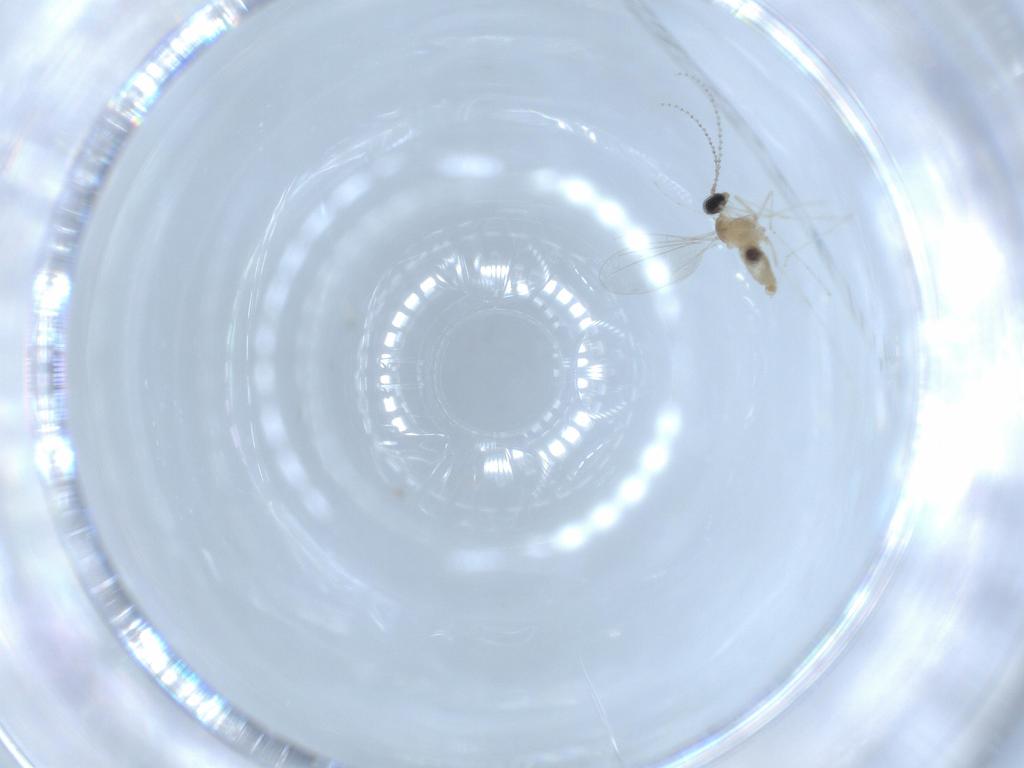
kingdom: Animalia
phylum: Arthropoda
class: Insecta
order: Diptera
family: Cecidomyiidae
